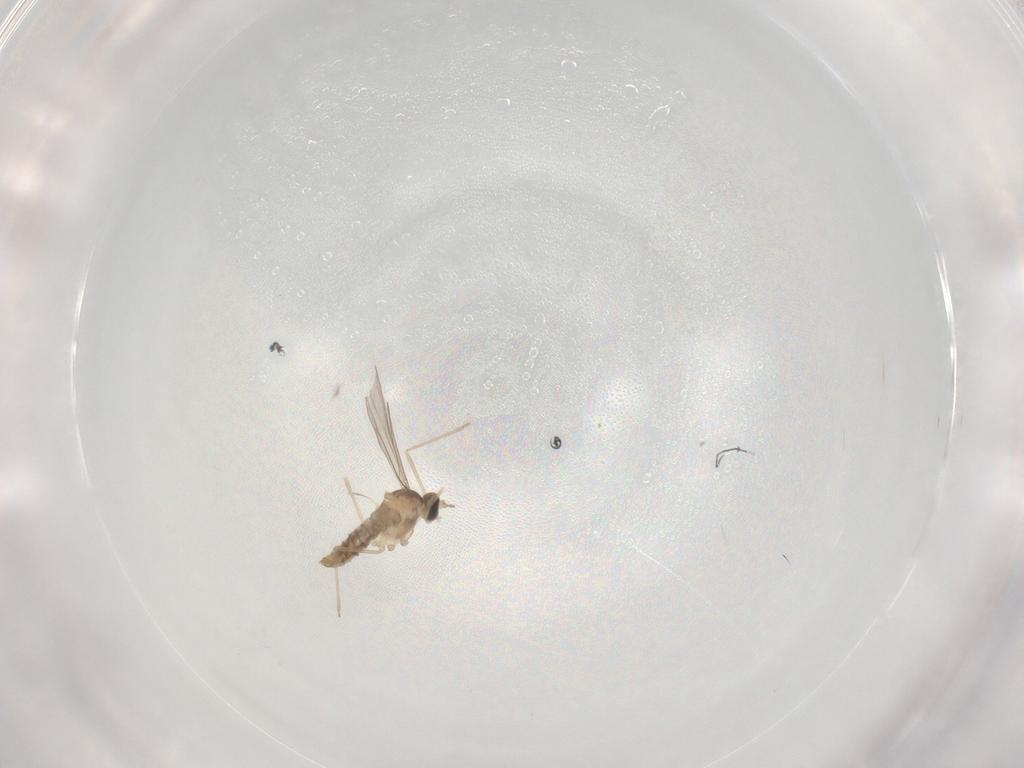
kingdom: Animalia
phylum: Arthropoda
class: Insecta
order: Diptera
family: Cecidomyiidae
